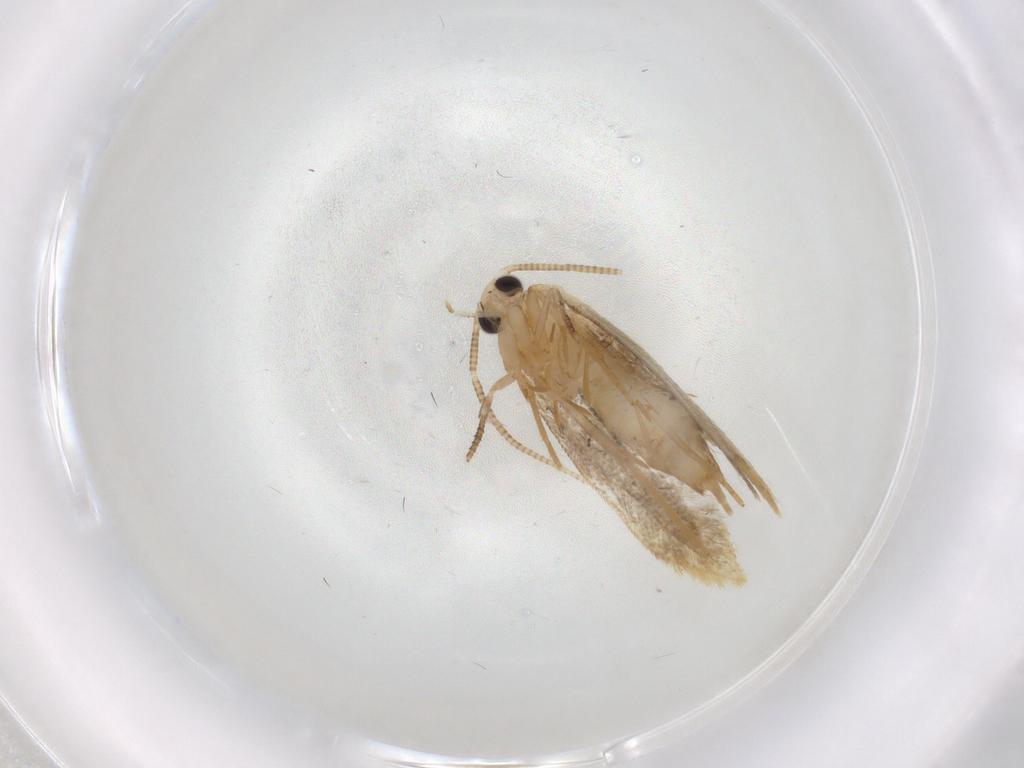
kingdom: Animalia
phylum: Arthropoda
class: Insecta
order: Lepidoptera
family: Tineidae
